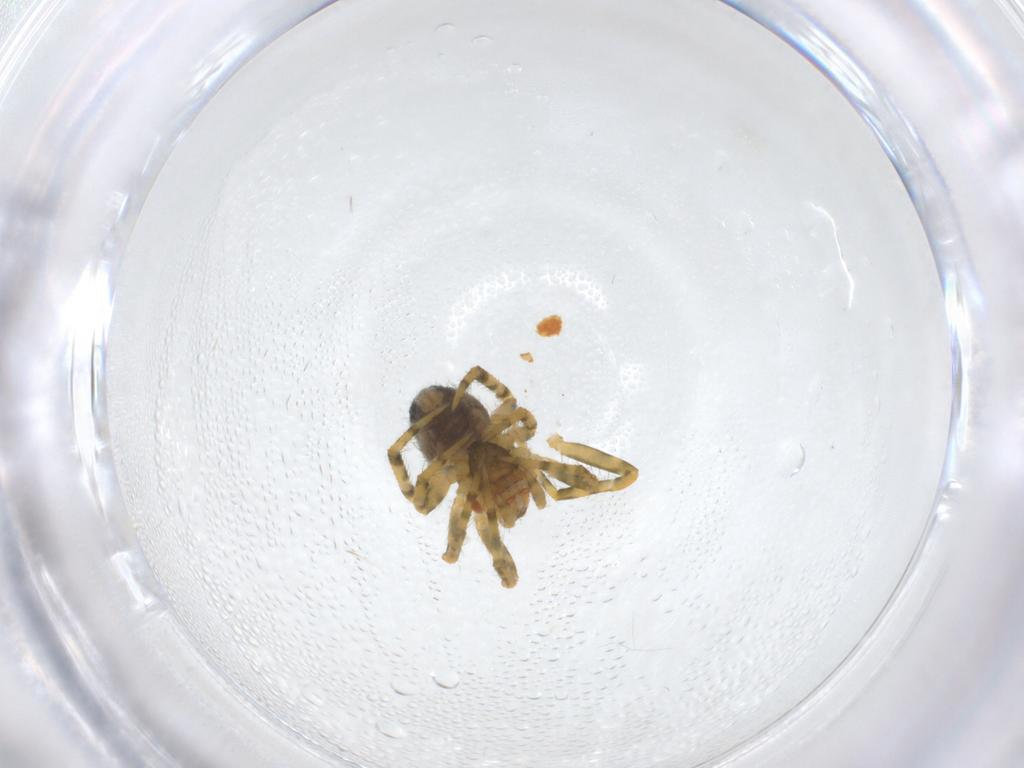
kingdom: Animalia
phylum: Arthropoda
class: Arachnida
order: Araneae
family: Theridiidae
